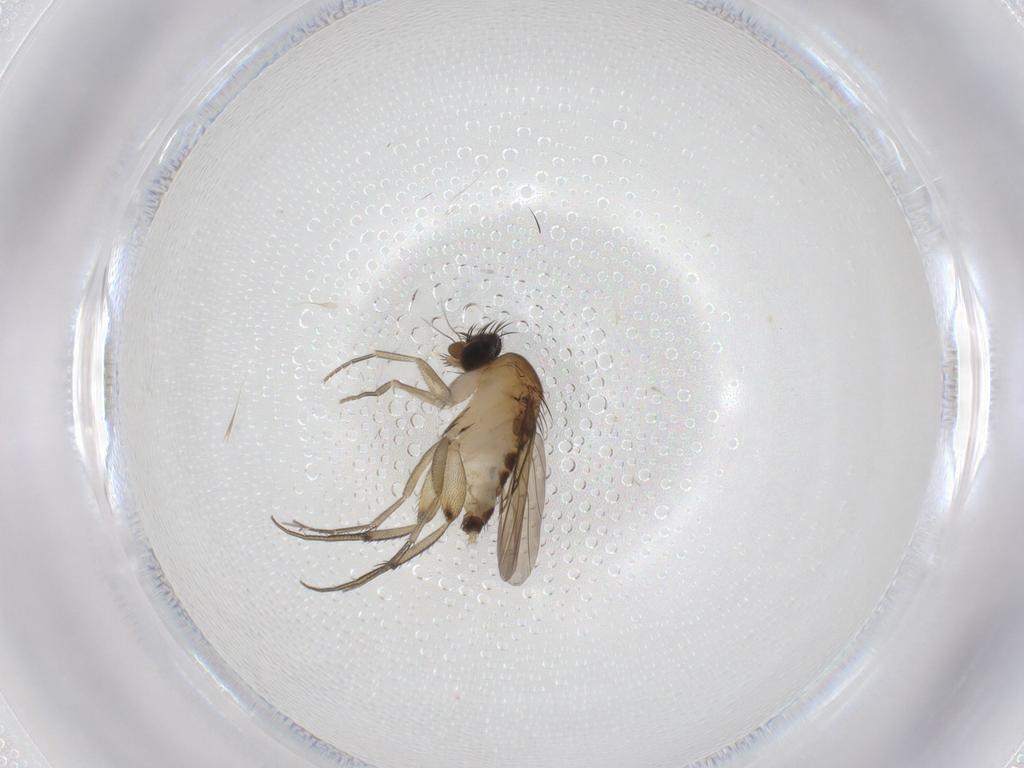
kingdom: Animalia
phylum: Arthropoda
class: Insecta
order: Diptera
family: Phoridae
